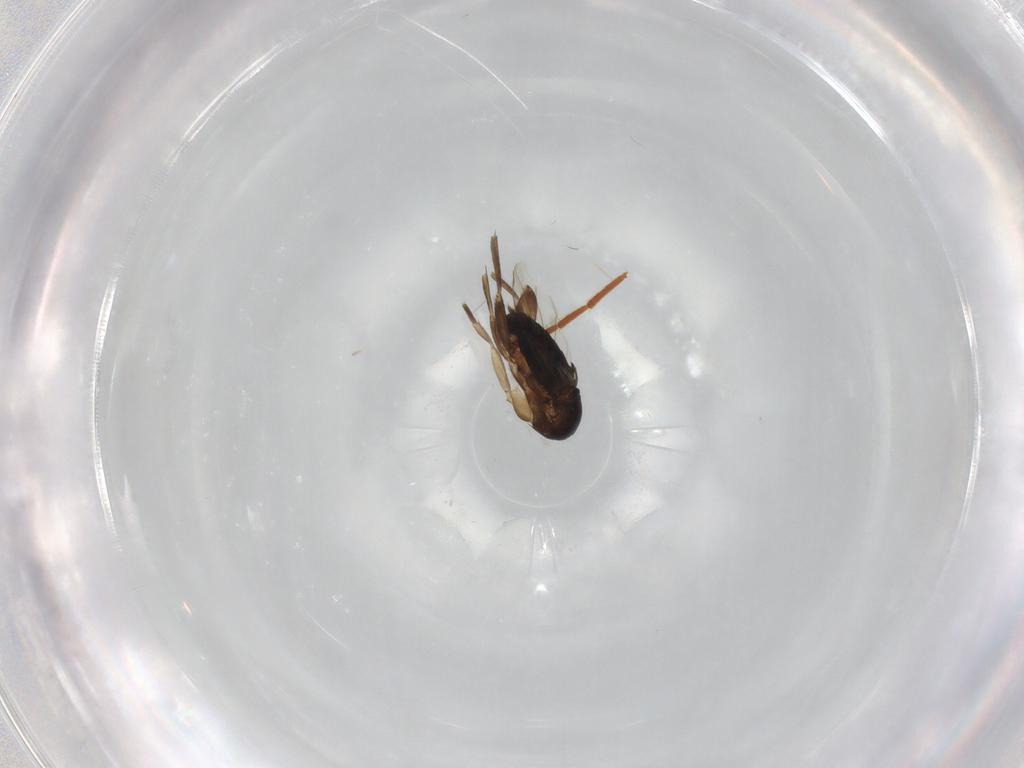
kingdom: Animalia
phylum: Arthropoda
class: Insecta
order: Diptera
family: Phoridae
